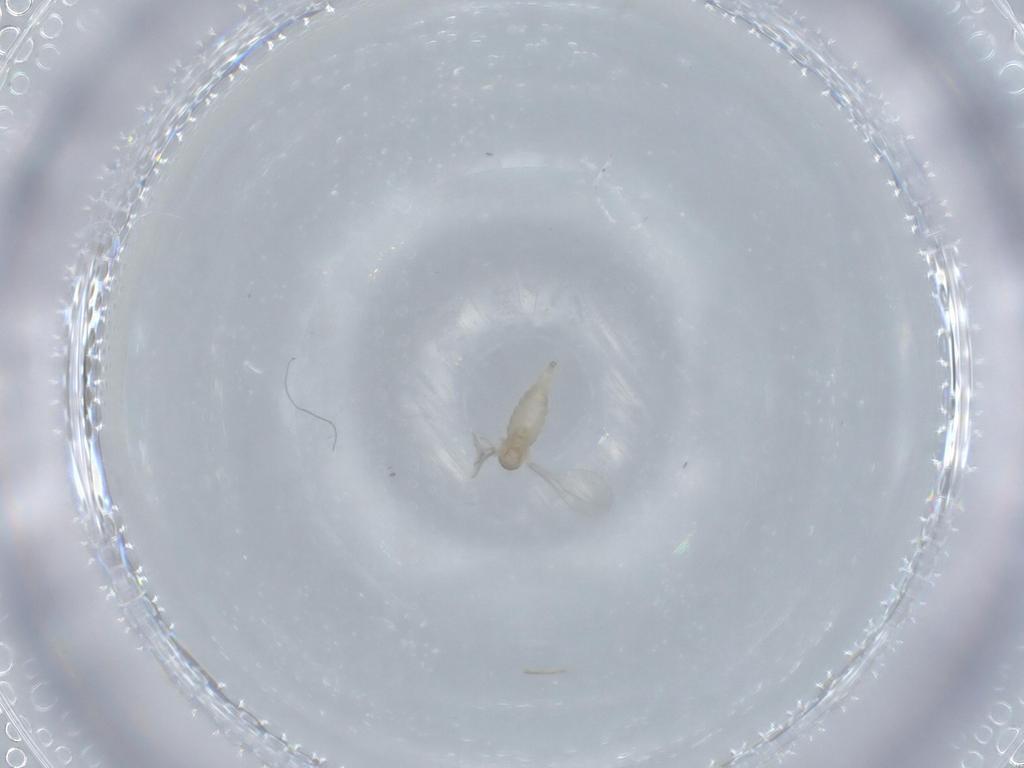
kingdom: Animalia
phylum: Arthropoda
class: Insecta
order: Diptera
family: Cecidomyiidae
